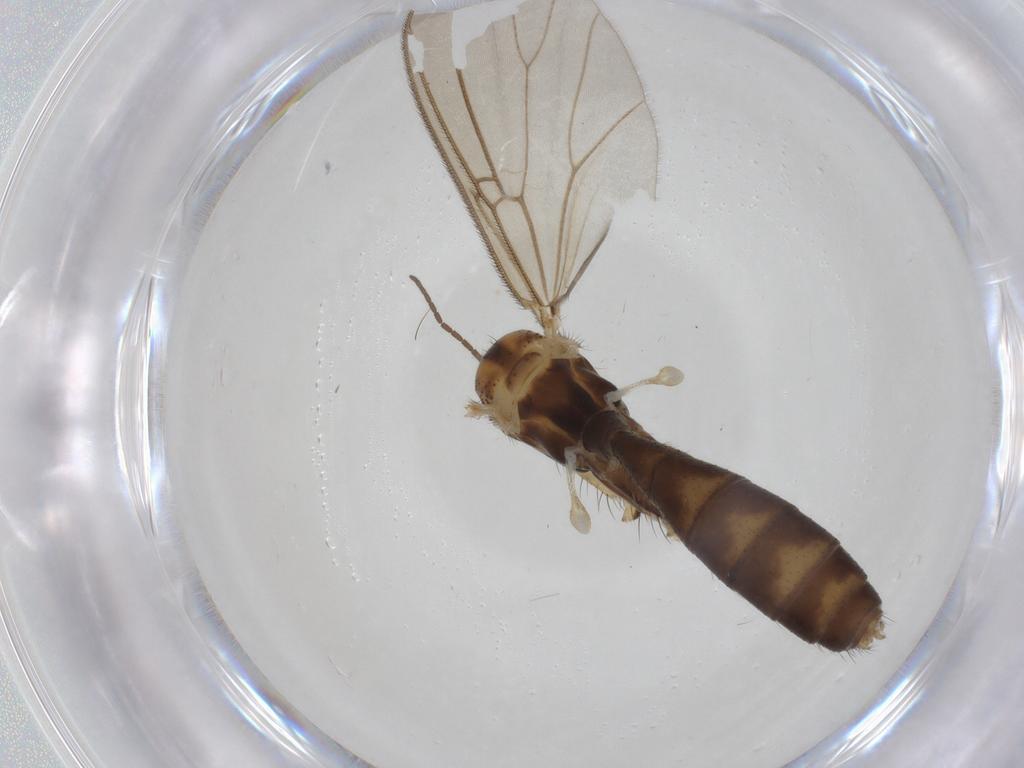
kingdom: Animalia
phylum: Arthropoda
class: Insecta
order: Diptera
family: Mycetophilidae
